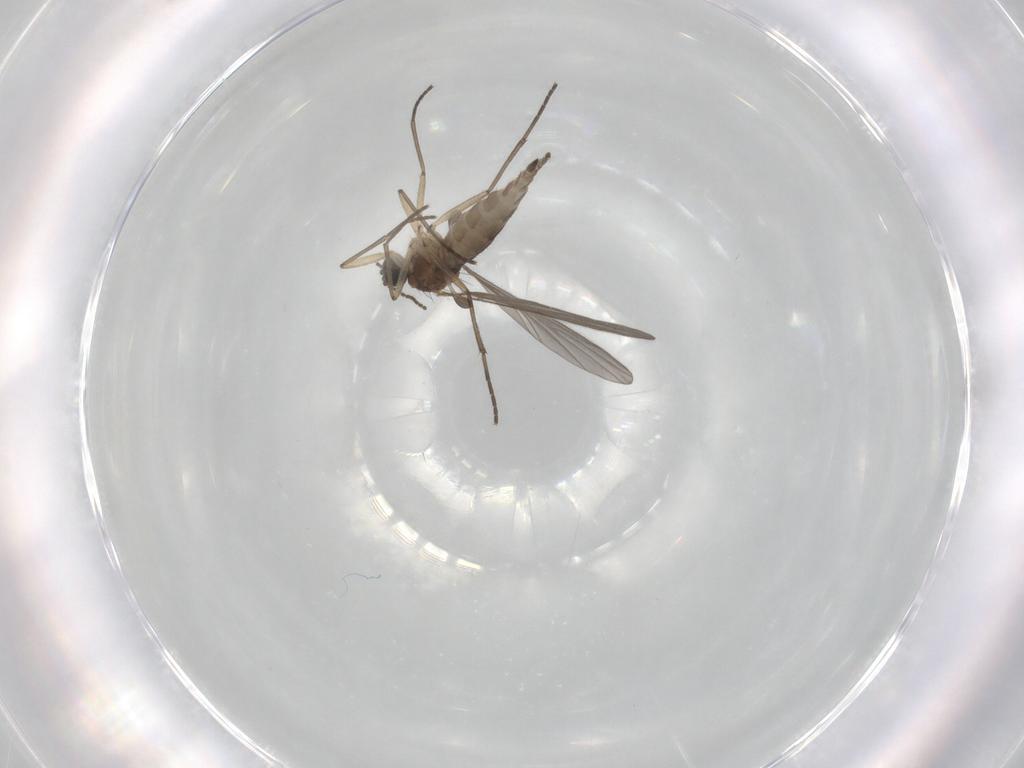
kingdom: Animalia
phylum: Arthropoda
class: Insecta
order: Diptera
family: Sciaridae
